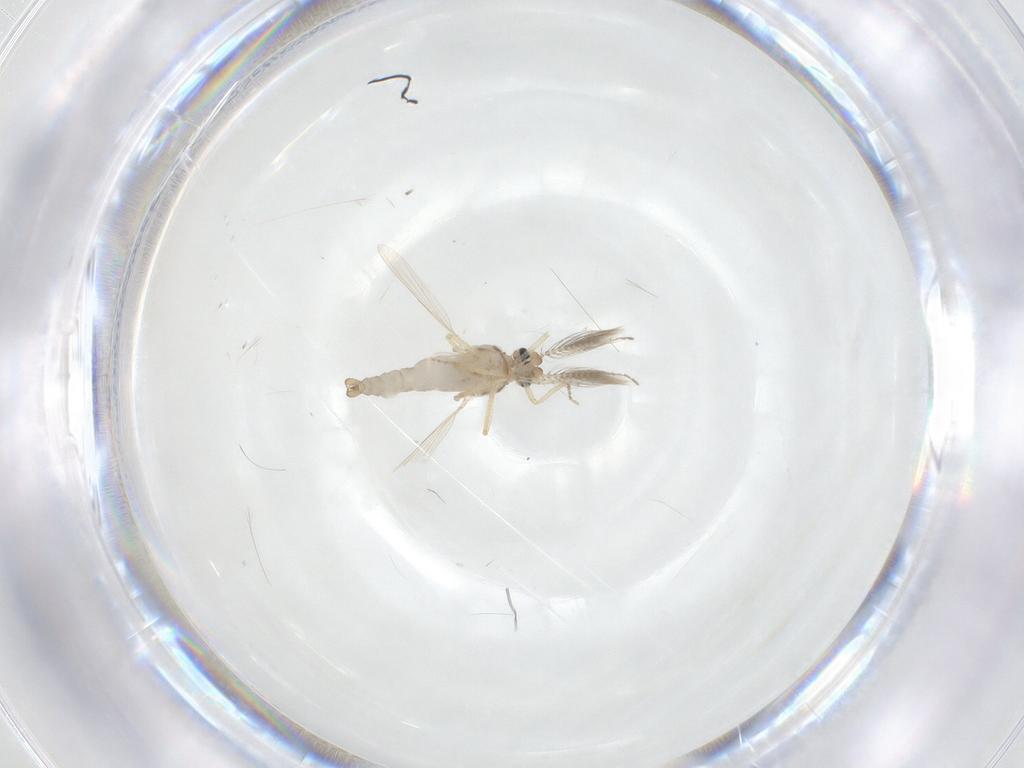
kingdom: Animalia
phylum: Arthropoda
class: Insecta
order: Diptera
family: Ceratopogonidae
